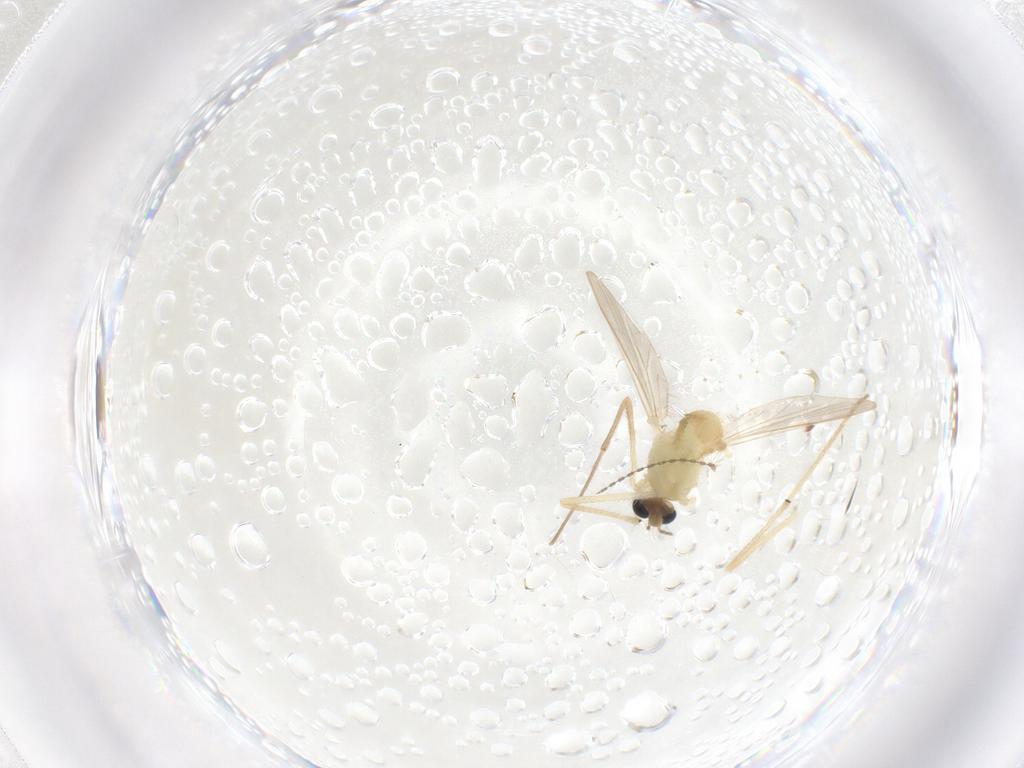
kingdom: Animalia
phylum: Arthropoda
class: Insecta
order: Diptera
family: Chironomidae
